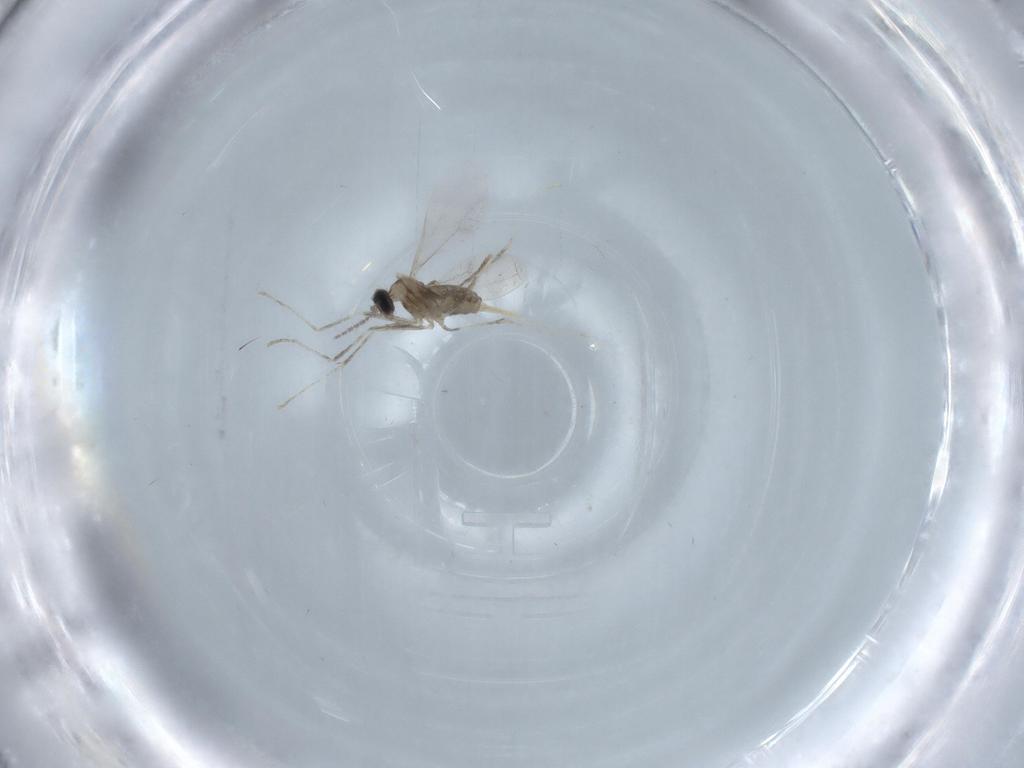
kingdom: Animalia
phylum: Arthropoda
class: Insecta
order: Diptera
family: Cecidomyiidae
